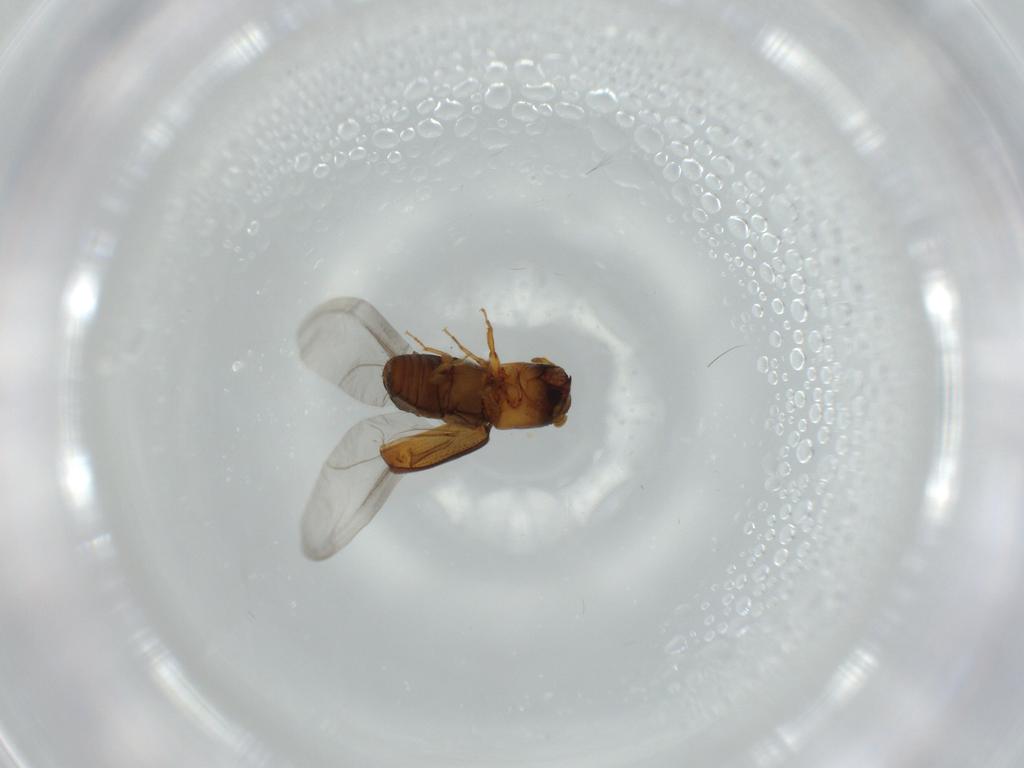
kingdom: Animalia
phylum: Arthropoda
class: Insecta
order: Coleoptera
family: Curculionidae
